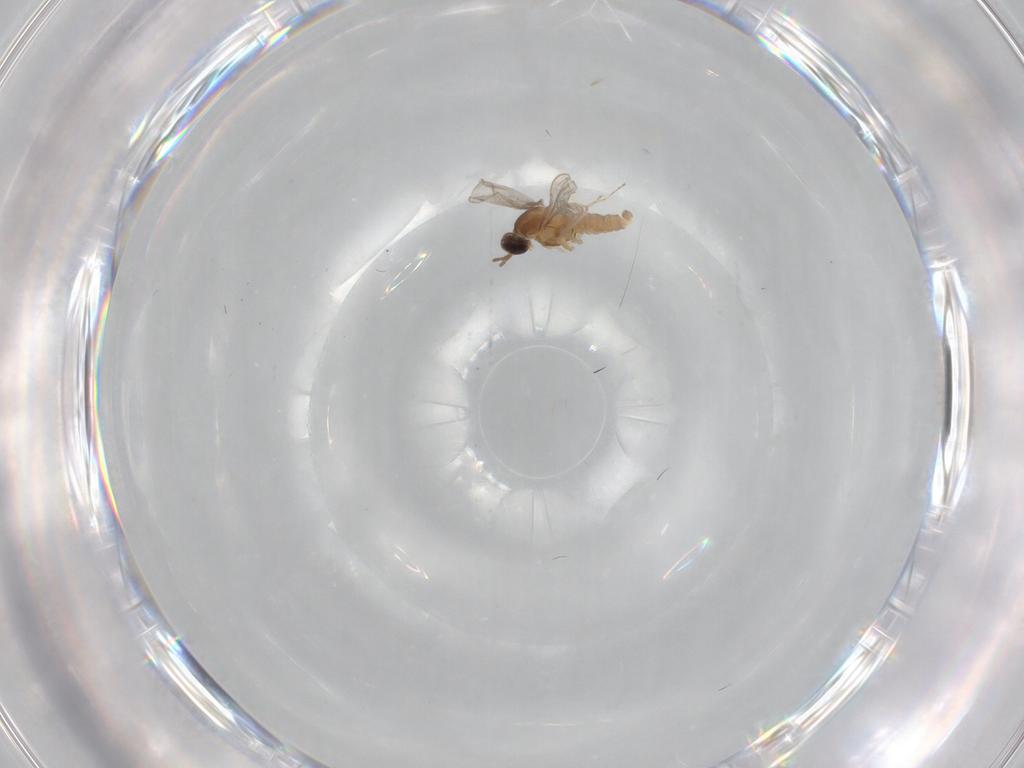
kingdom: Animalia
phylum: Arthropoda
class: Insecta
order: Diptera
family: Cecidomyiidae
